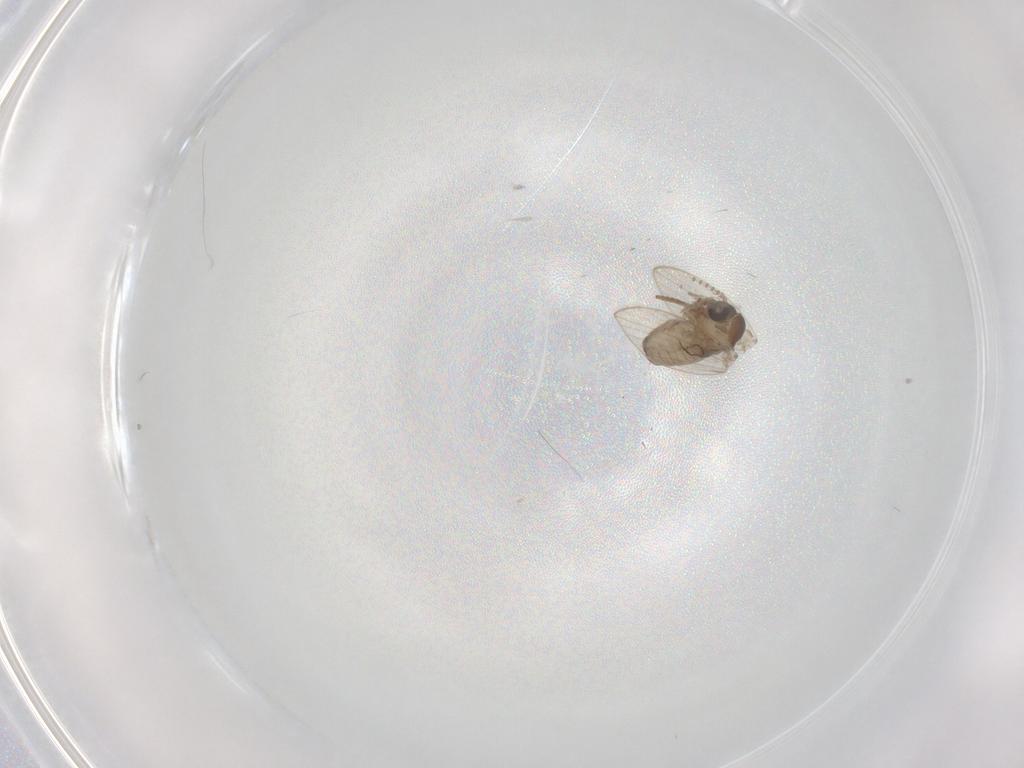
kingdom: Animalia
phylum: Arthropoda
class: Insecta
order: Diptera
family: Psychodidae
